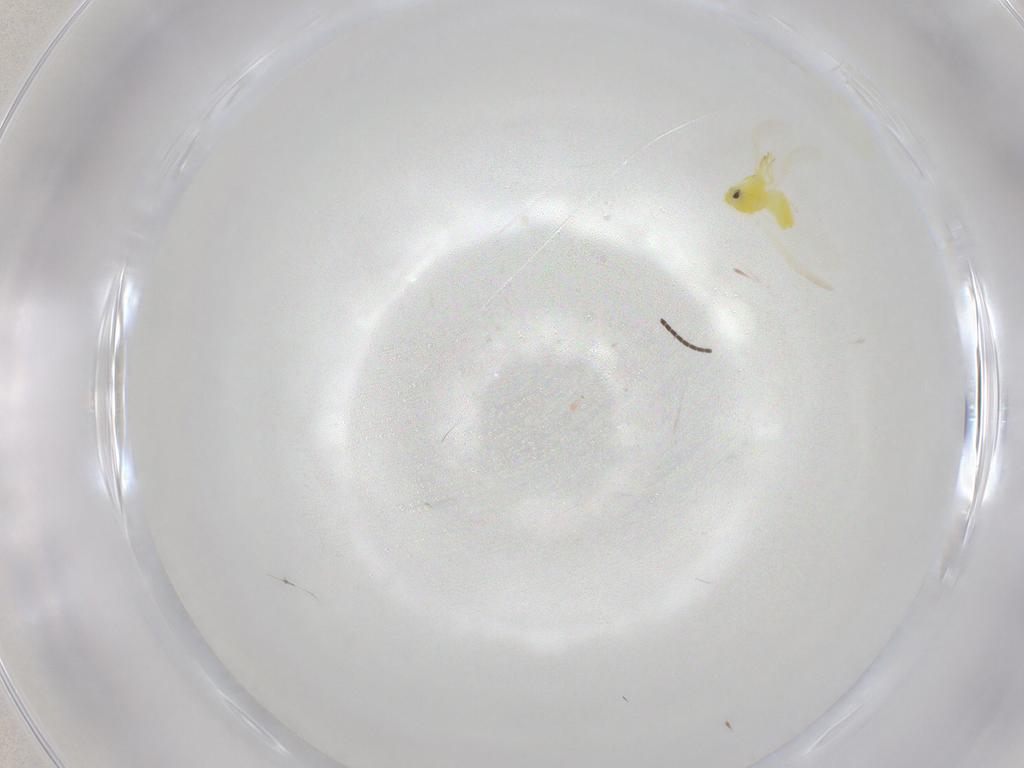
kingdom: Animalia
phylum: Arthropoda
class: Insecta
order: Hemiptera
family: Aleyrodidae
